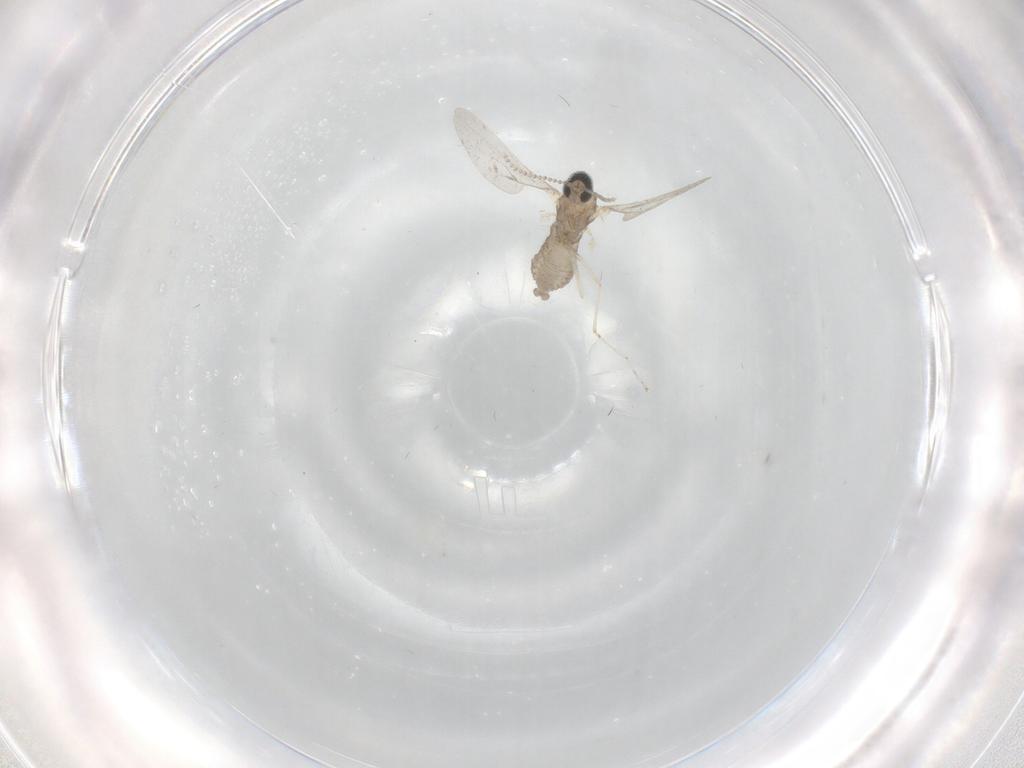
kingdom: Animalia
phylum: Arthropoda
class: Insecta
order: Diptera
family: Cecidomyiidae
